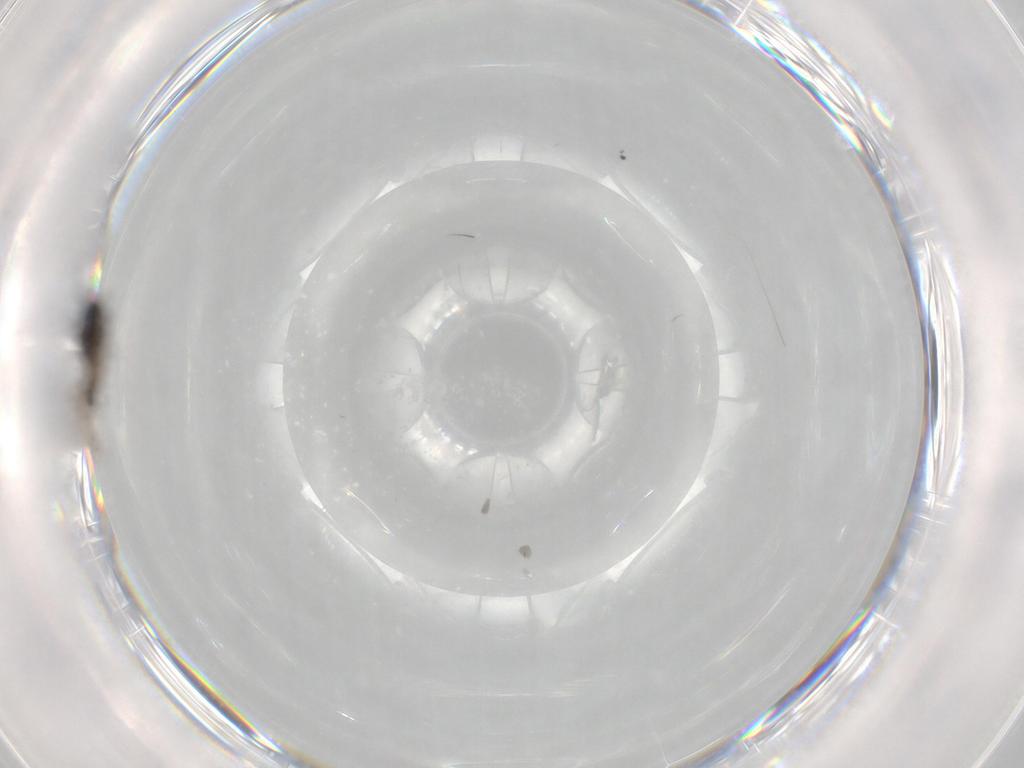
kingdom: Animalia
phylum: Arthropoda
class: Insecta
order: Hymenoptera
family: Figitidae
